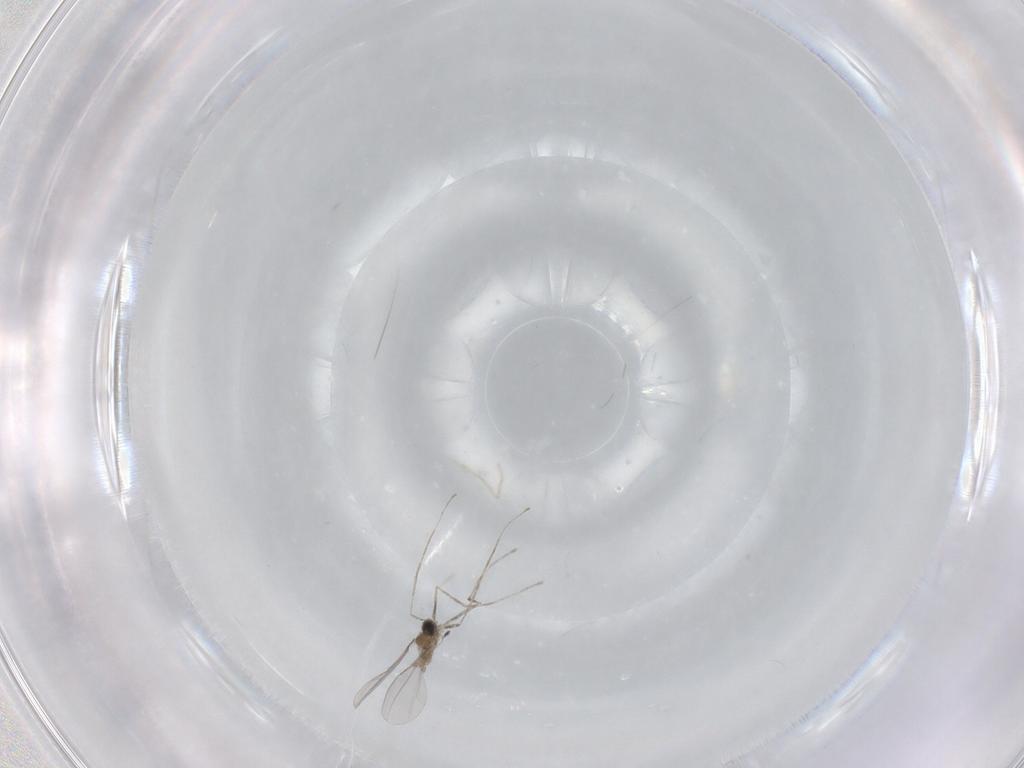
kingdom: Animalia
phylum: Arthropoda
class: Insecta
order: Diptera
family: Cecidomyiidae
